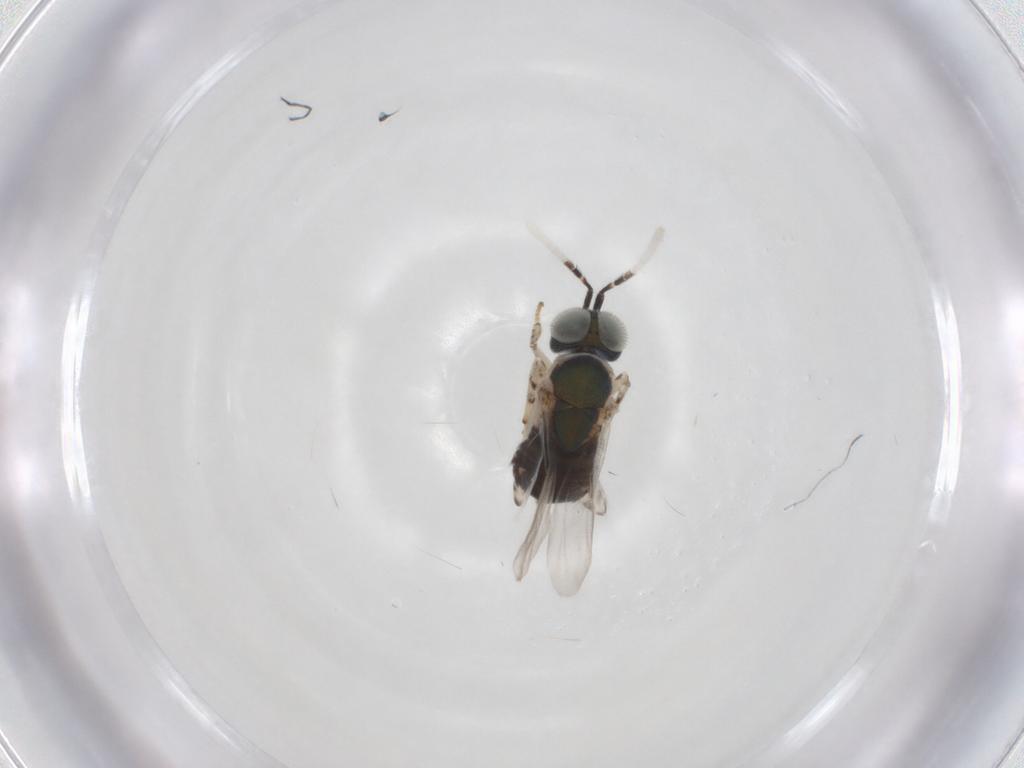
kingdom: Animalia
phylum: Arthropoda
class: Insecta
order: Hymenoptera
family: Encyrtidae
